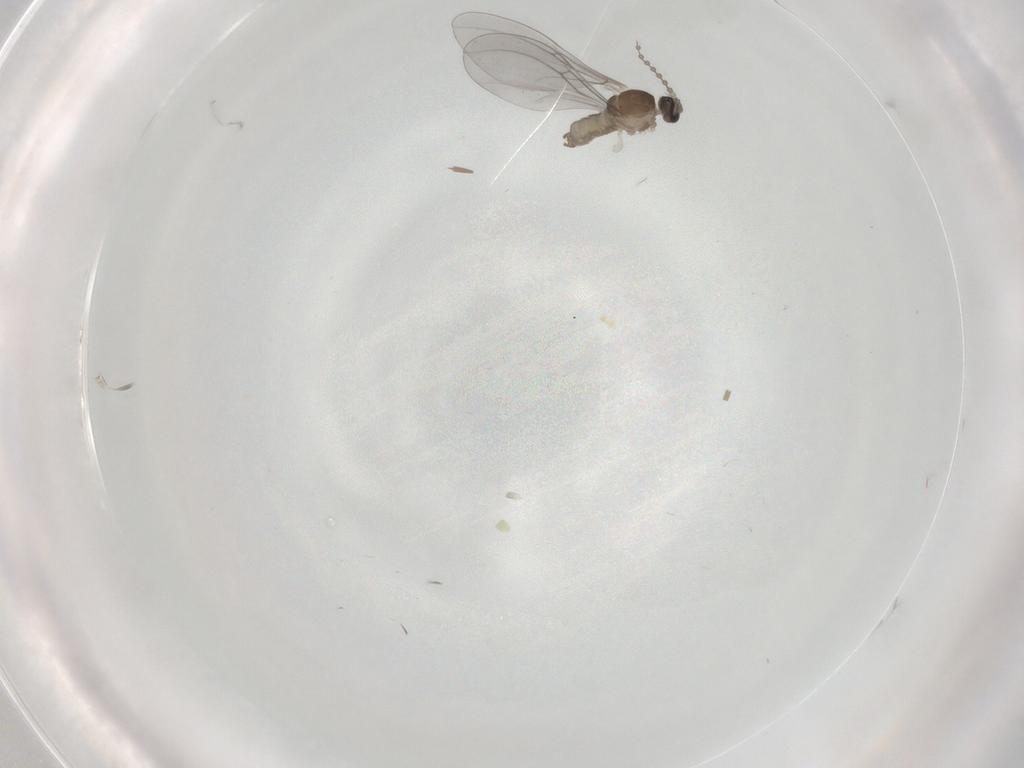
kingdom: Animalia
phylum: Arthropoda
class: Insecta
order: Diptera
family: Cecidomyiidae
